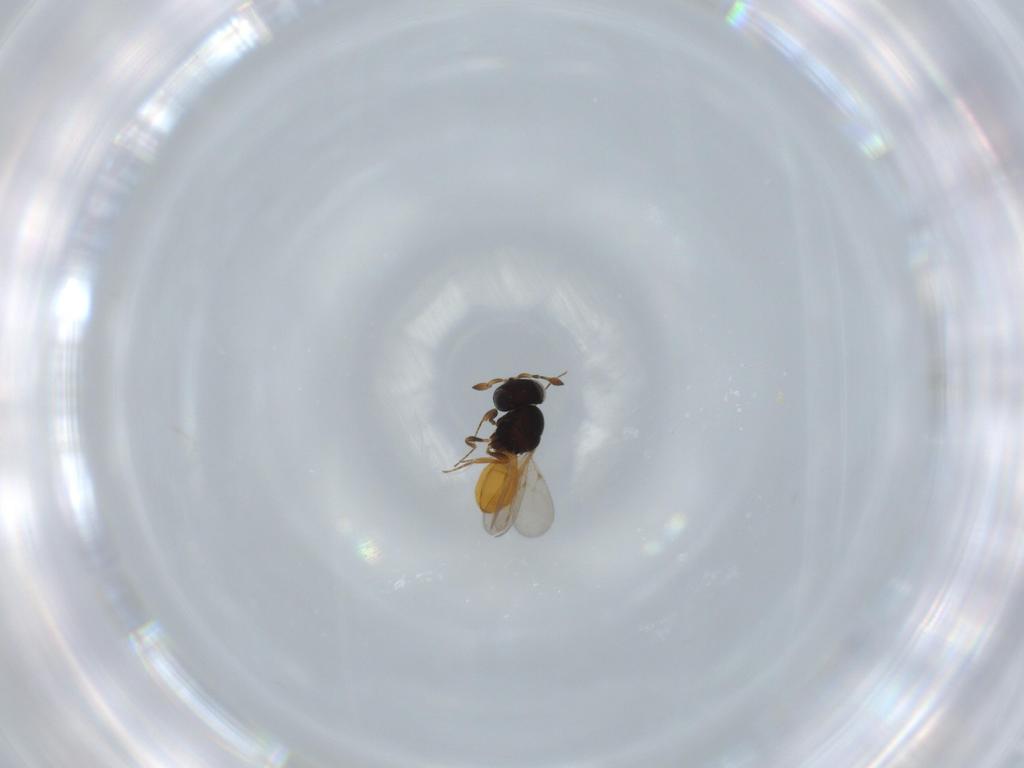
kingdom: Animalia
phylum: Arthropoda
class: Insecta
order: Hymenoptera
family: Scelionidae
